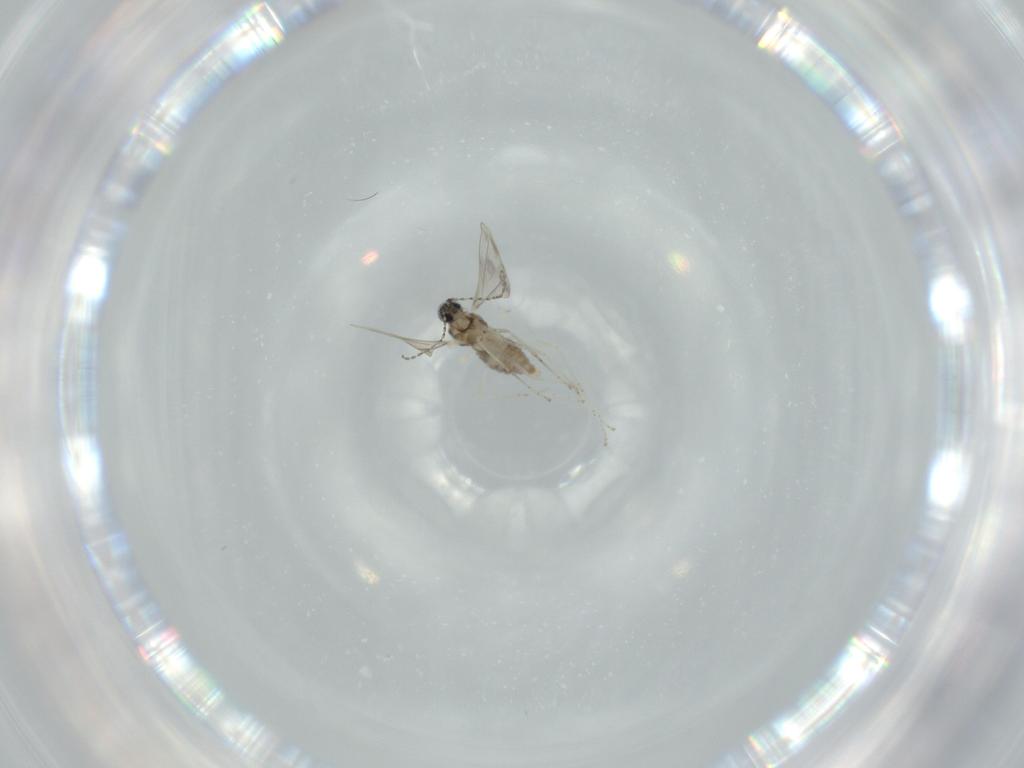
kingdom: Animalia
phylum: Arthropoda
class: Insecta
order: Diptera
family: Cecidomyiidae
